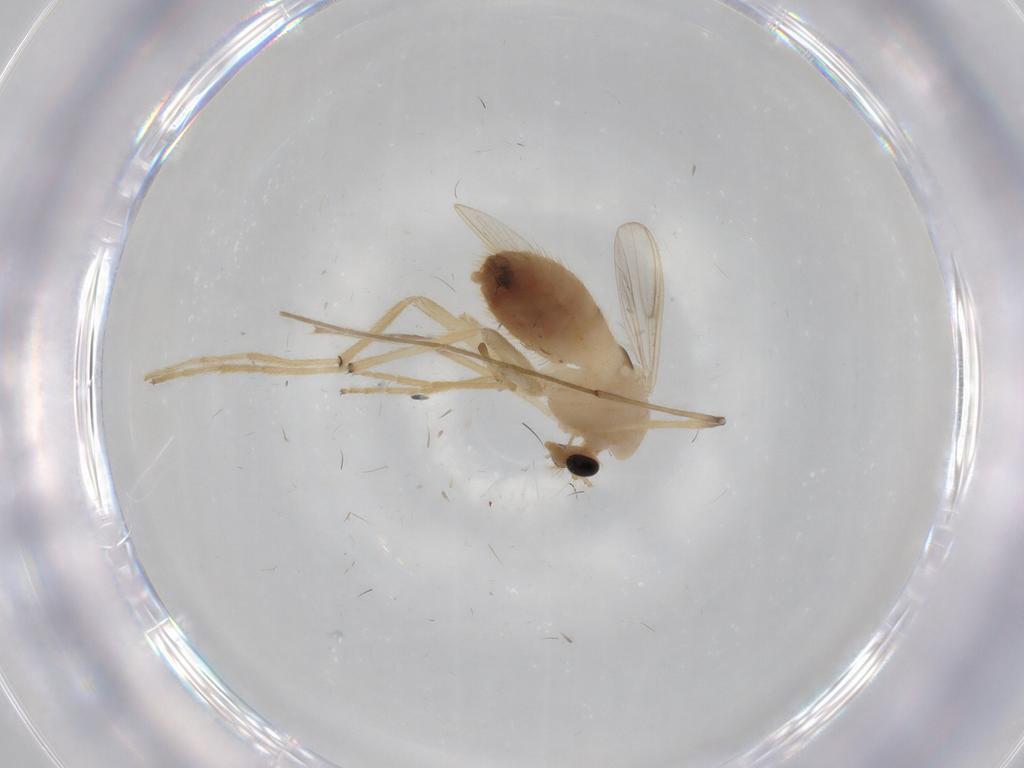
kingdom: Animalia
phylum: Arthropoda
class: Insecta
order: Diptera
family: Chironomidae
